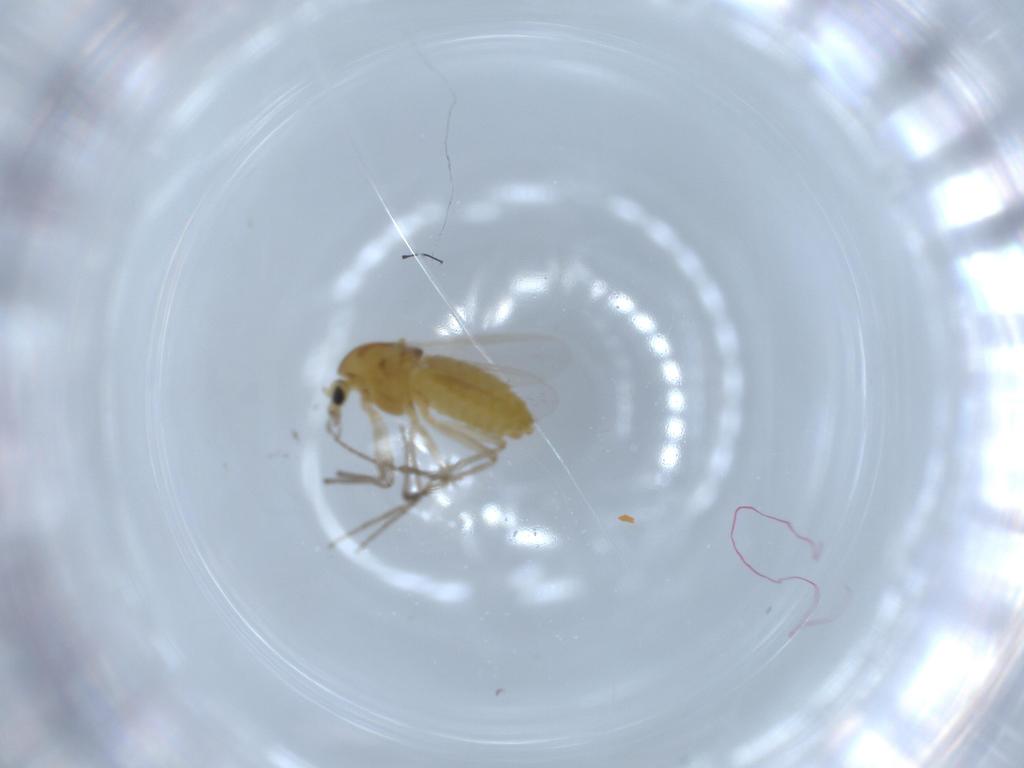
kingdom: Animalia
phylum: Arthropoda
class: Insecta
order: Diptera
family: Chironomidae
